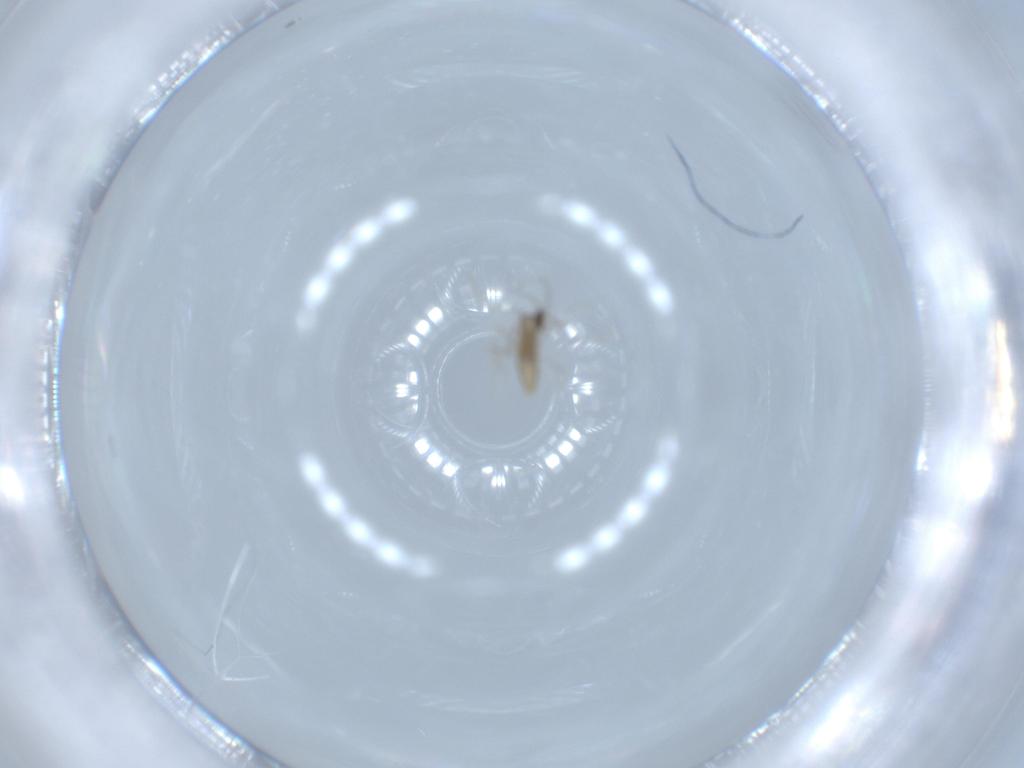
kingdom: Animalia
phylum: Arthropoda
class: Insecta
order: Diptera
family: Cecidomyiidae
